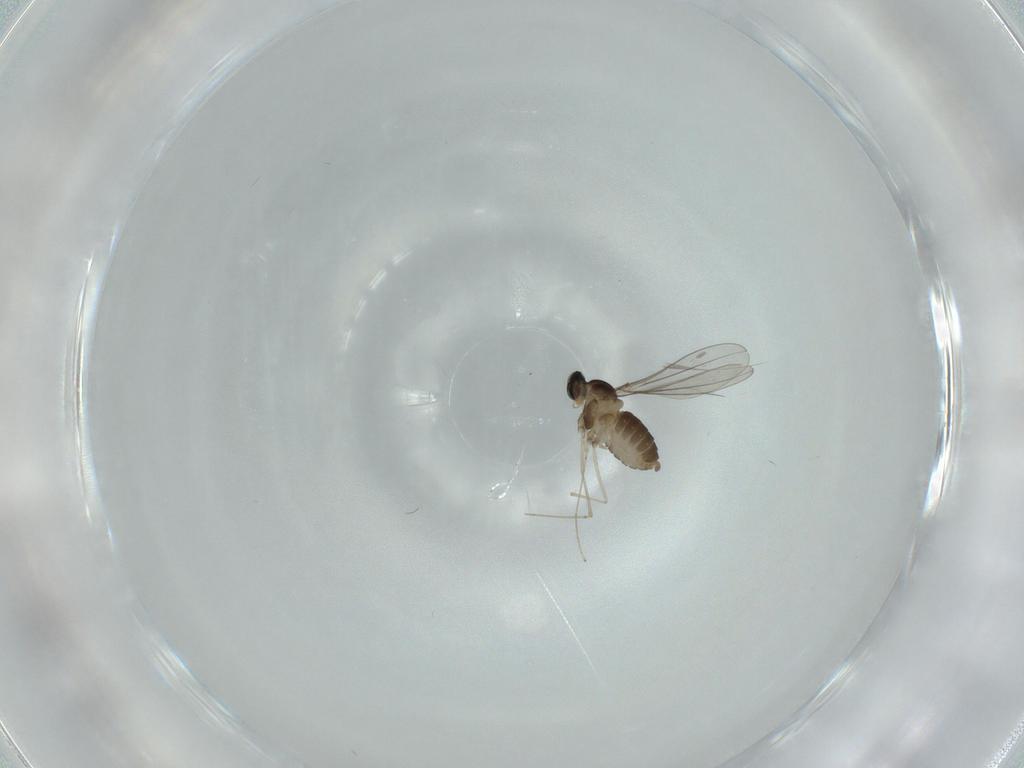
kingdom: Animalia
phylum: Arthropoda
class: Insecta
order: Diptera
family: Cecidomyiidae
